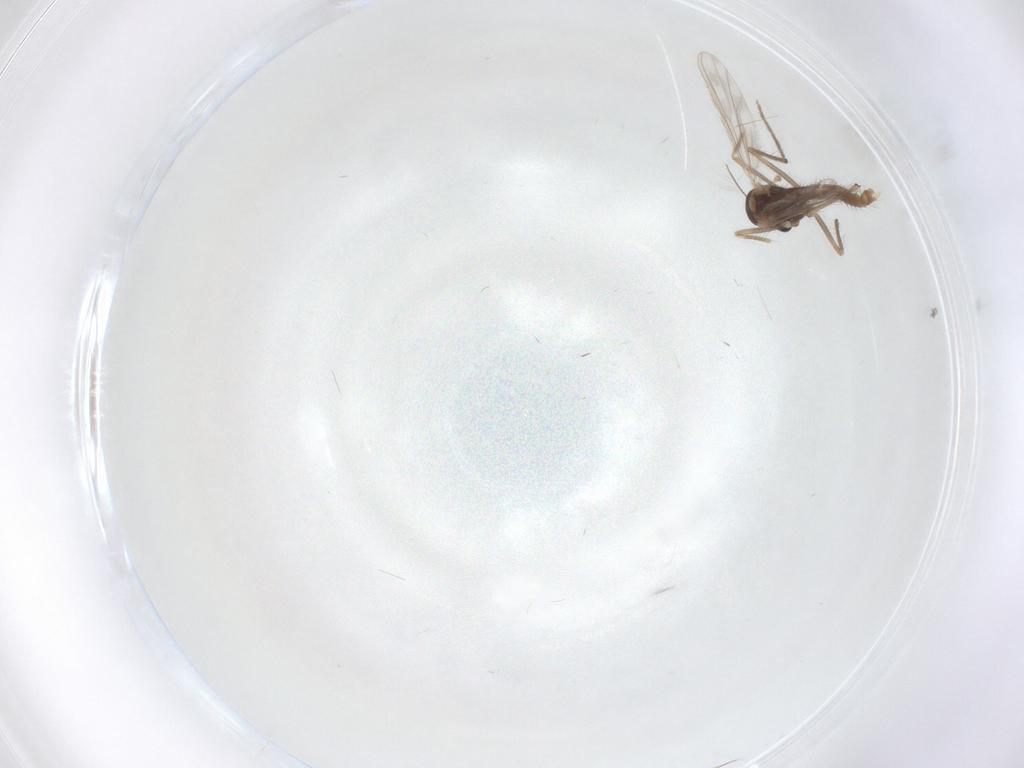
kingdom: Animalia
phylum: Arthropoda
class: Insecta
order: Diptera
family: Chironomidae
